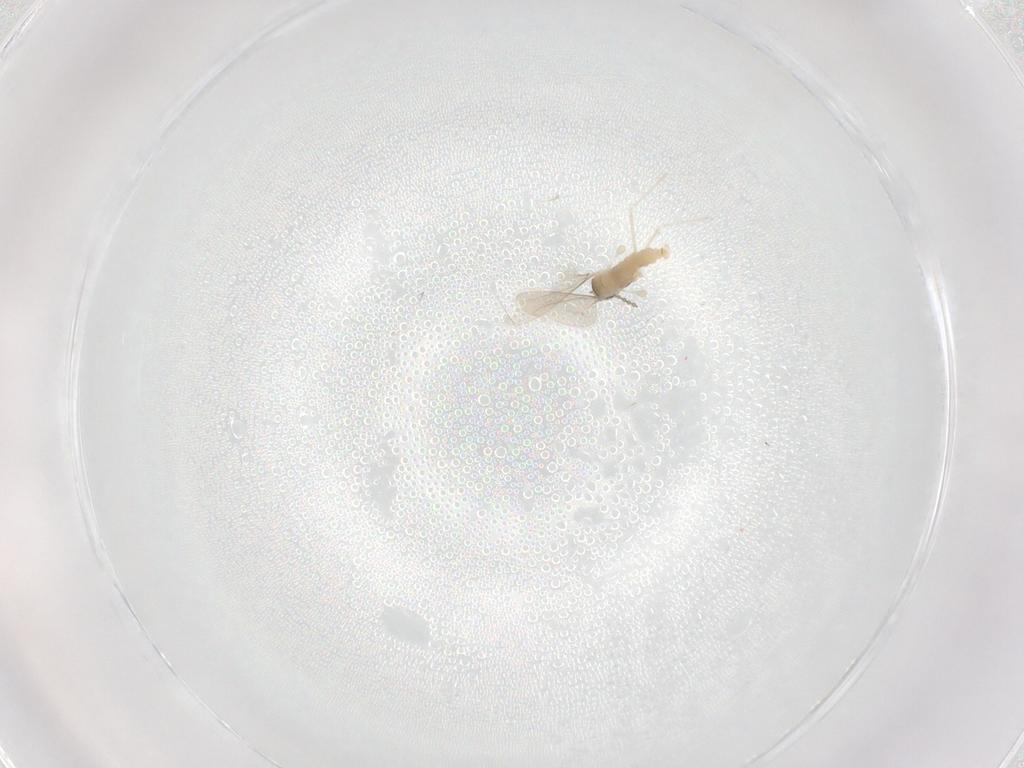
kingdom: Animalia
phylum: Arthropoda
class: Insecta
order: Diptera
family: Cecidomyiidae
